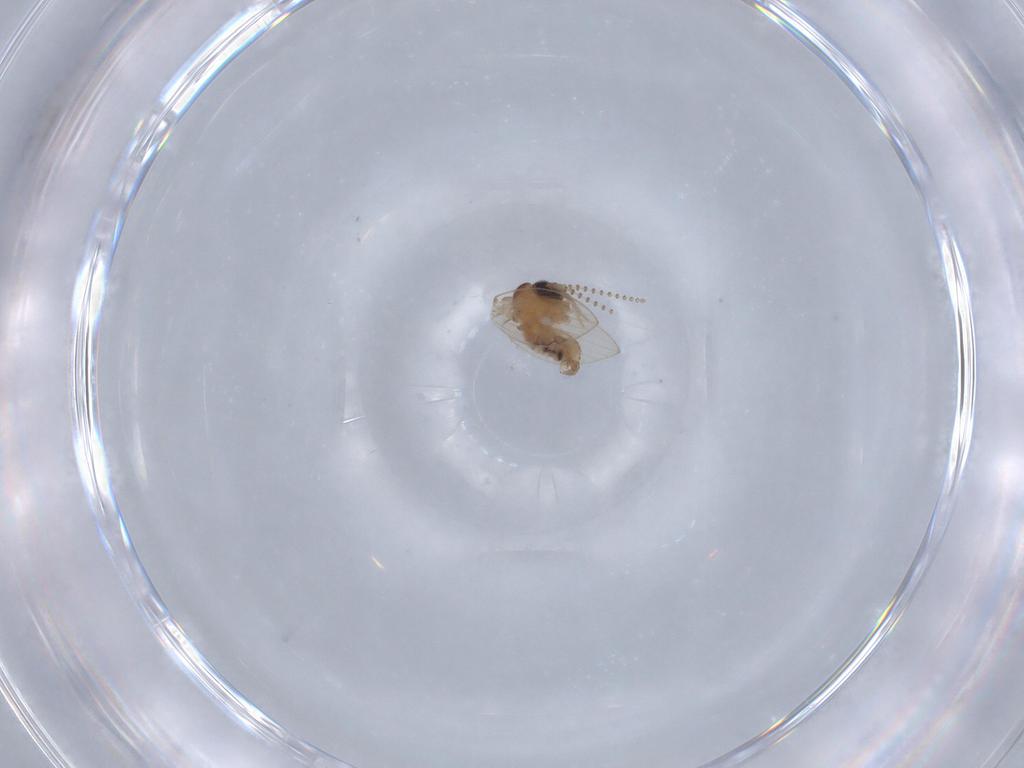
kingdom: Animalia
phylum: Arthropoda
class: Insecta
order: Diptera
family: Psychodidae
